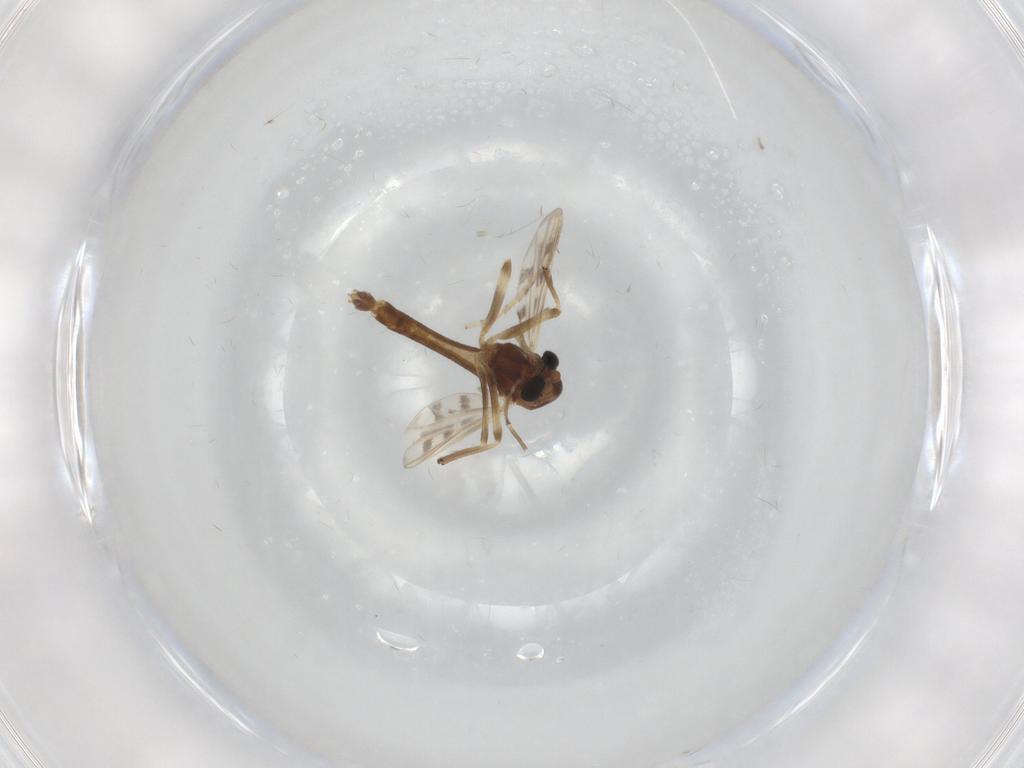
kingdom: Animalia
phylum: Arthropoda
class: Insecta
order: Diptera
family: Chironomidae
